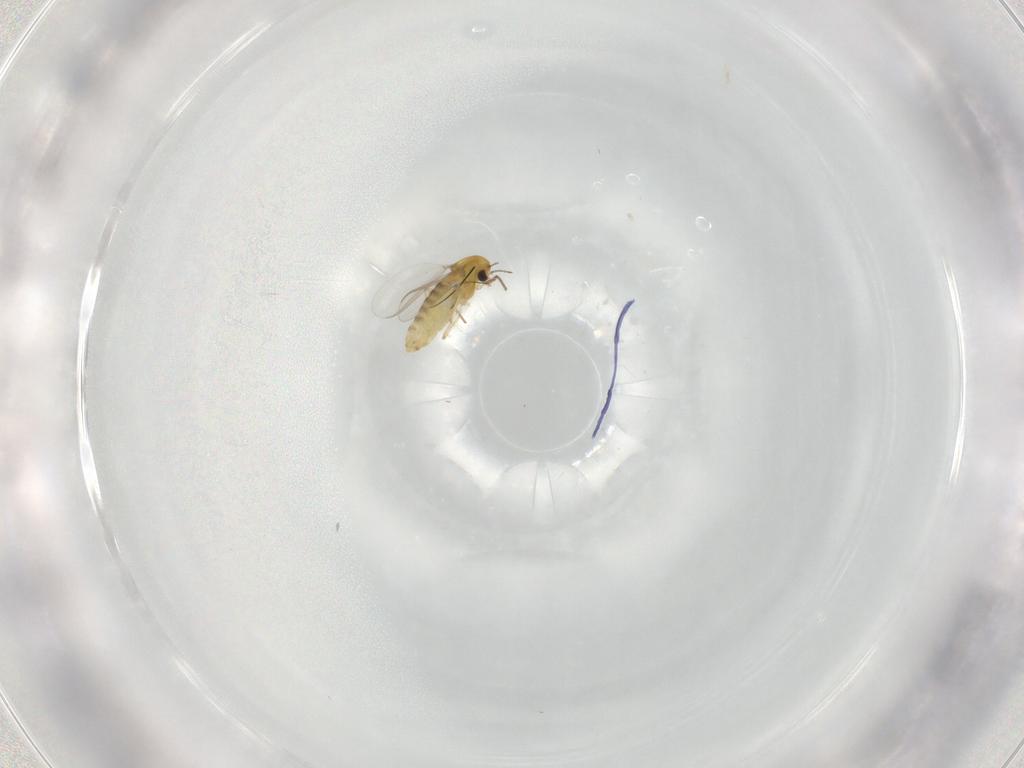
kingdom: Animalia
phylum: Arthropoda
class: Insecta
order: Diptera
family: Chironomidae
